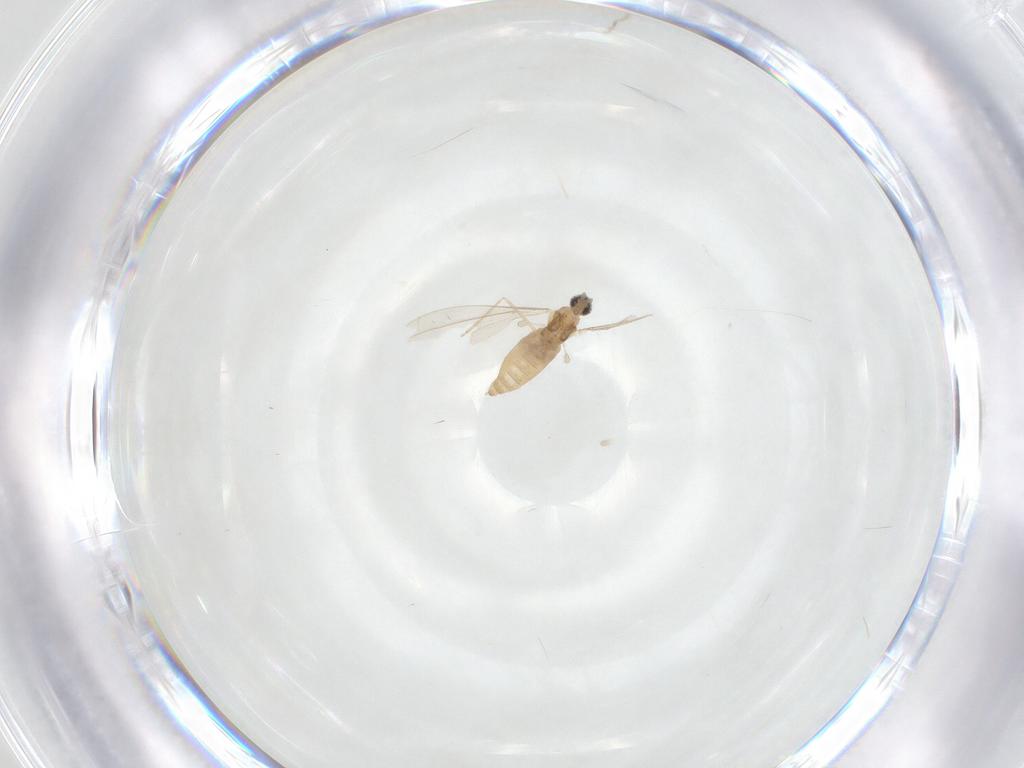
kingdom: Animalia
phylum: Arthropoda
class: Insecta
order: Diptera
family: Cecidomyiidae
